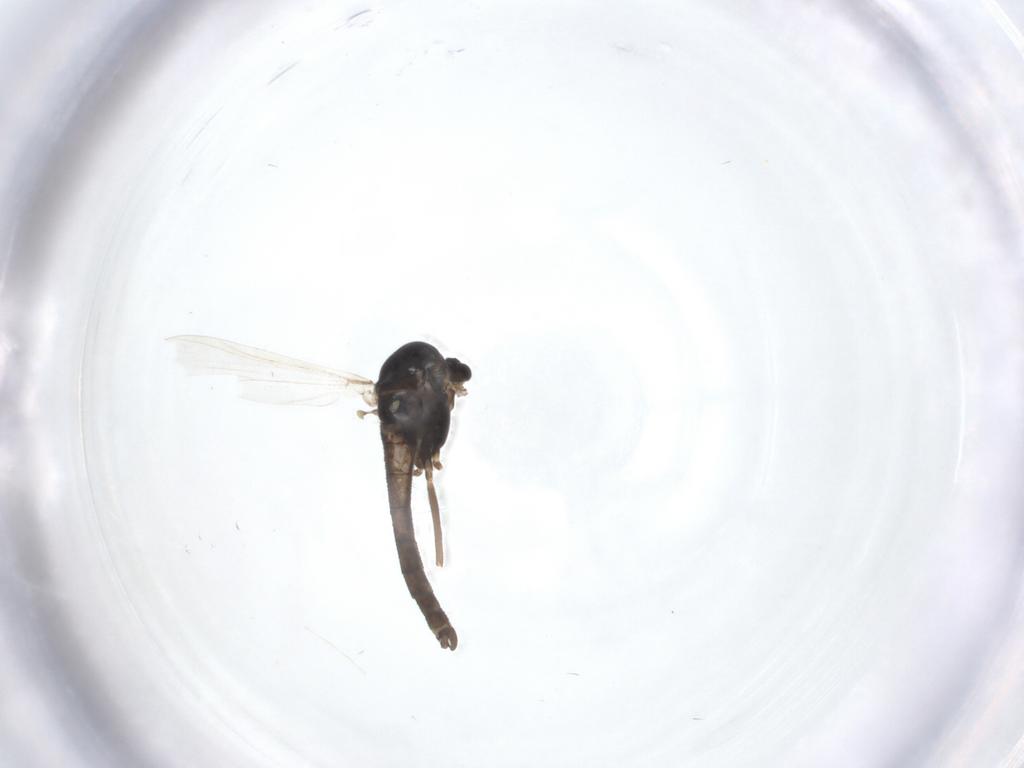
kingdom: Animalia
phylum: Arthropoda
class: Insecta
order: Diptera
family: Chironomidae
